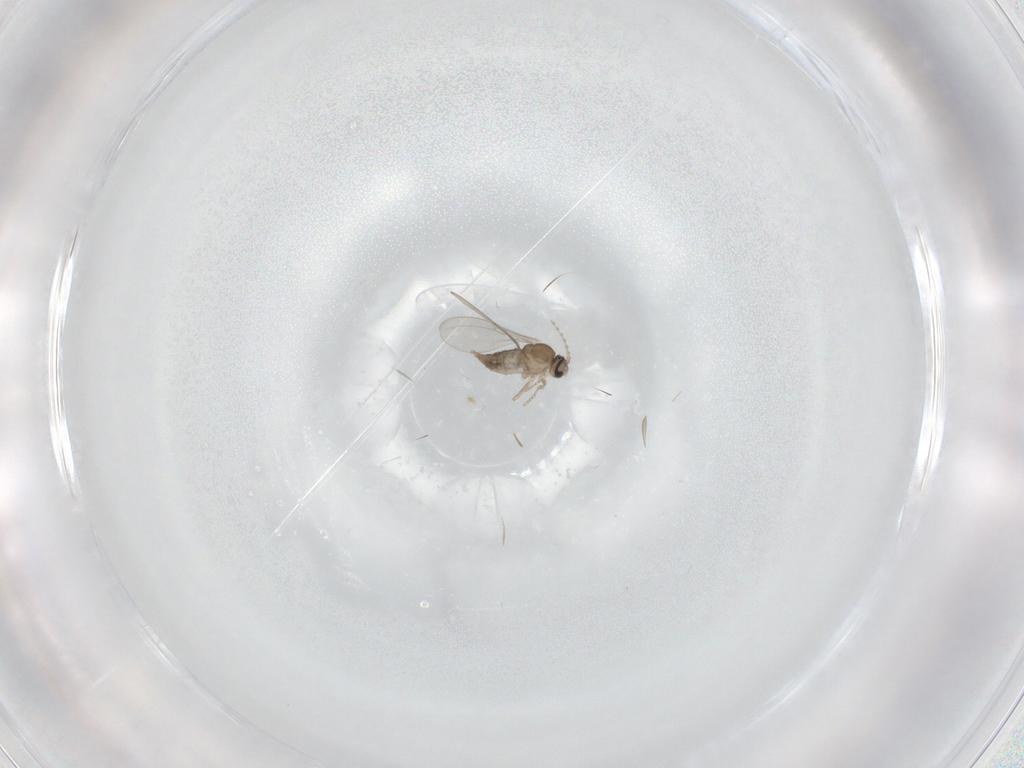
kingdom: Animalia
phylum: Arthropoda
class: Insecta
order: Diptera
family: Cecidomyiidae
